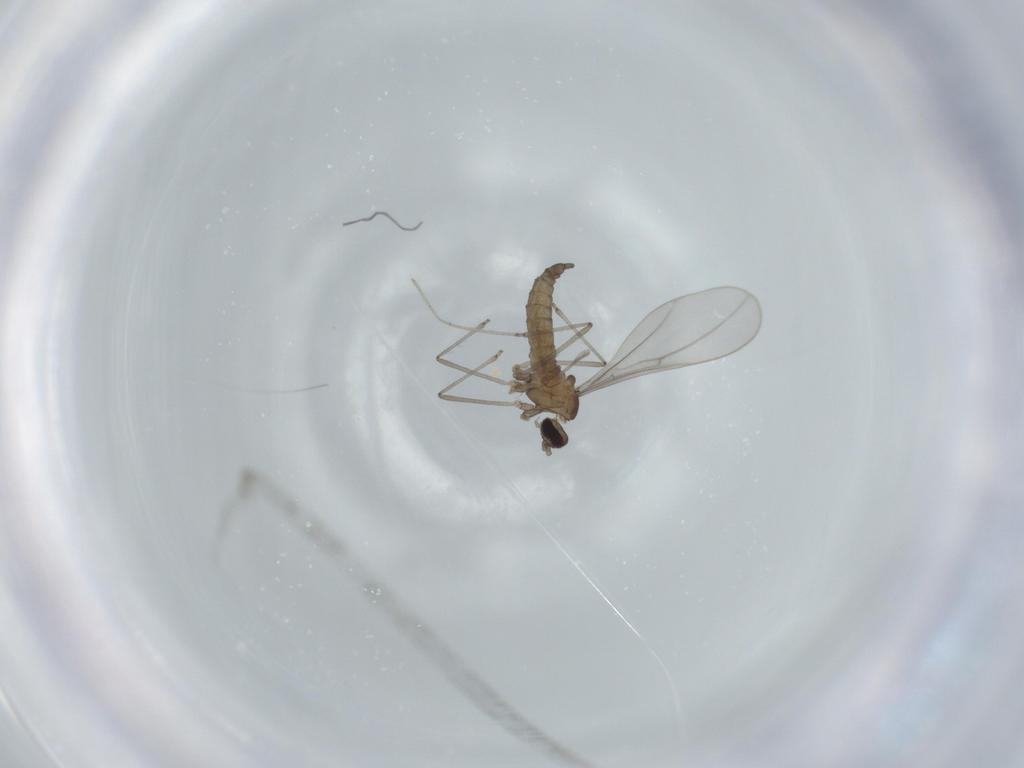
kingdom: Animalia
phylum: Arthropoda
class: Insecta
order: Diptera
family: Cecidomyiidae
